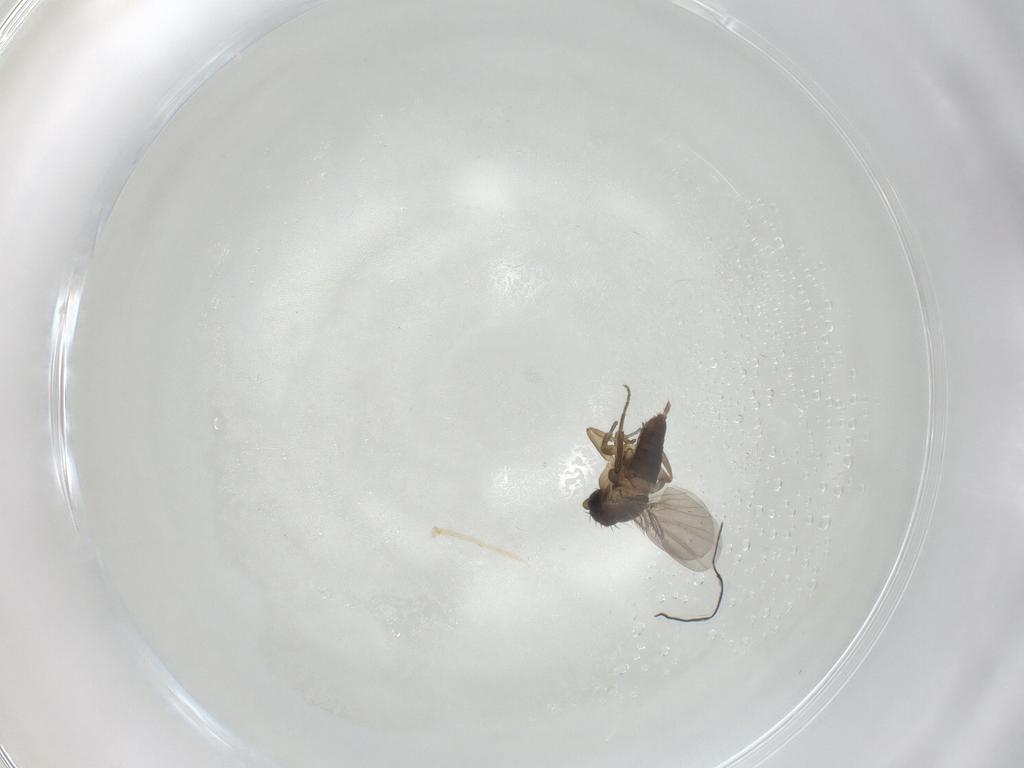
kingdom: Animalia
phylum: Arthropoda
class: Insecta
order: Diptera
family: Phoridae
